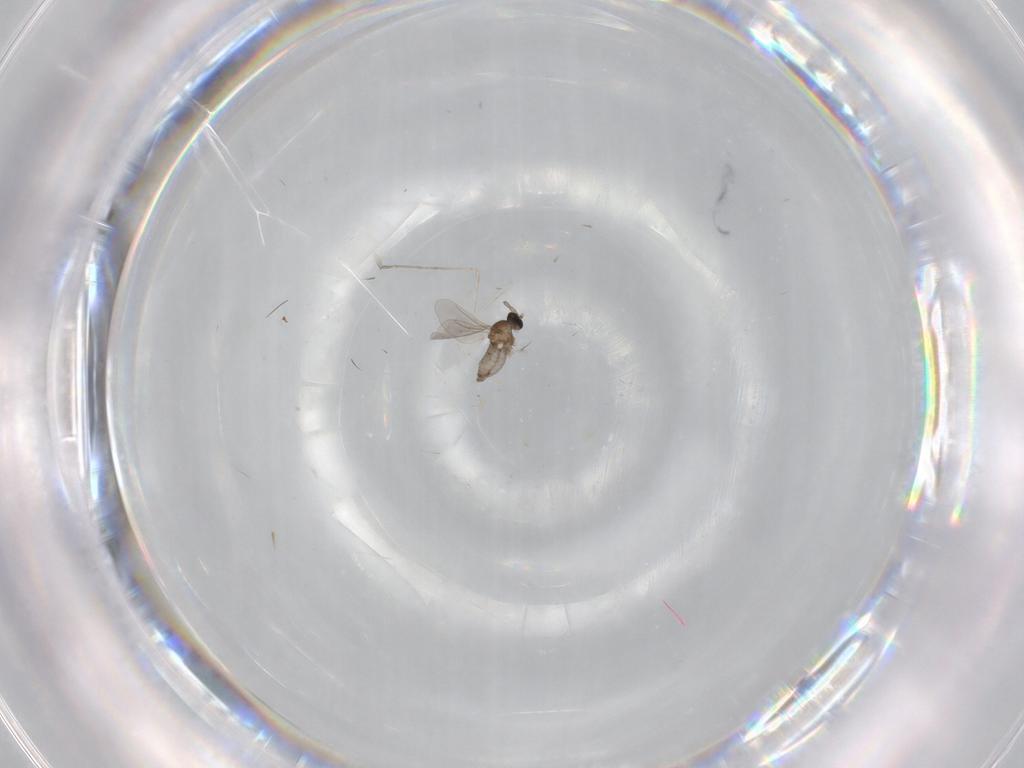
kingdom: Animalia
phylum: Arthropoda
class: Insecta
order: Diptera
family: Cecidomyiidae
